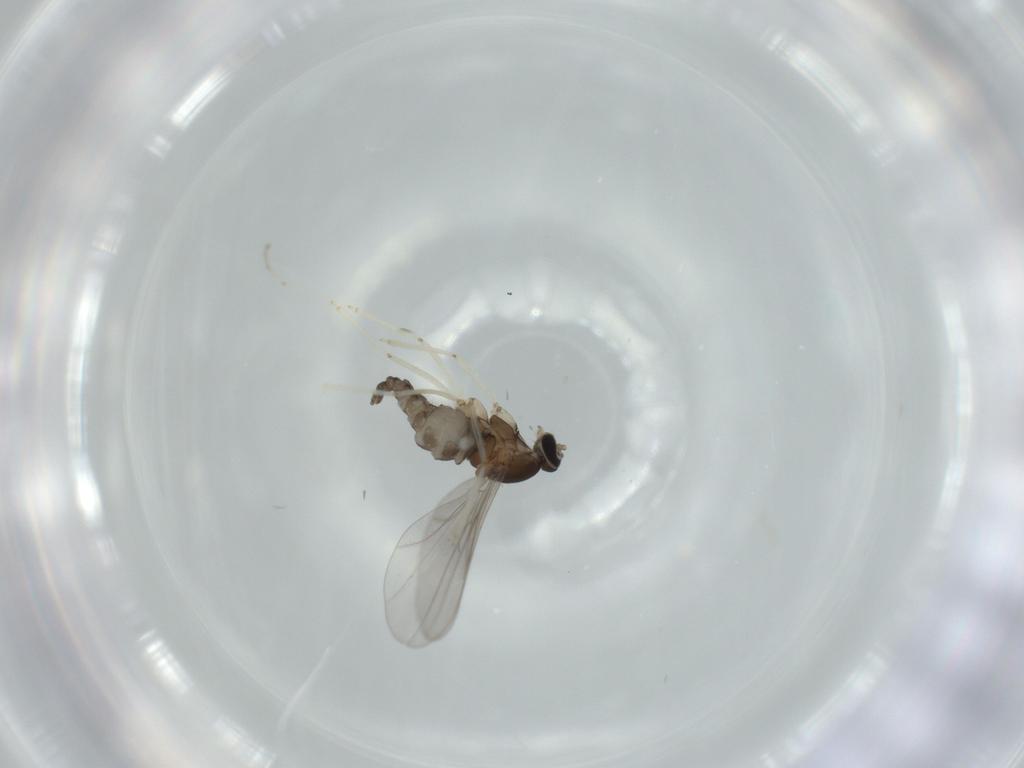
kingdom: Animalia
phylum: Arthropoda
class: Insecta
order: Diptera
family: Cecidomyiidae
